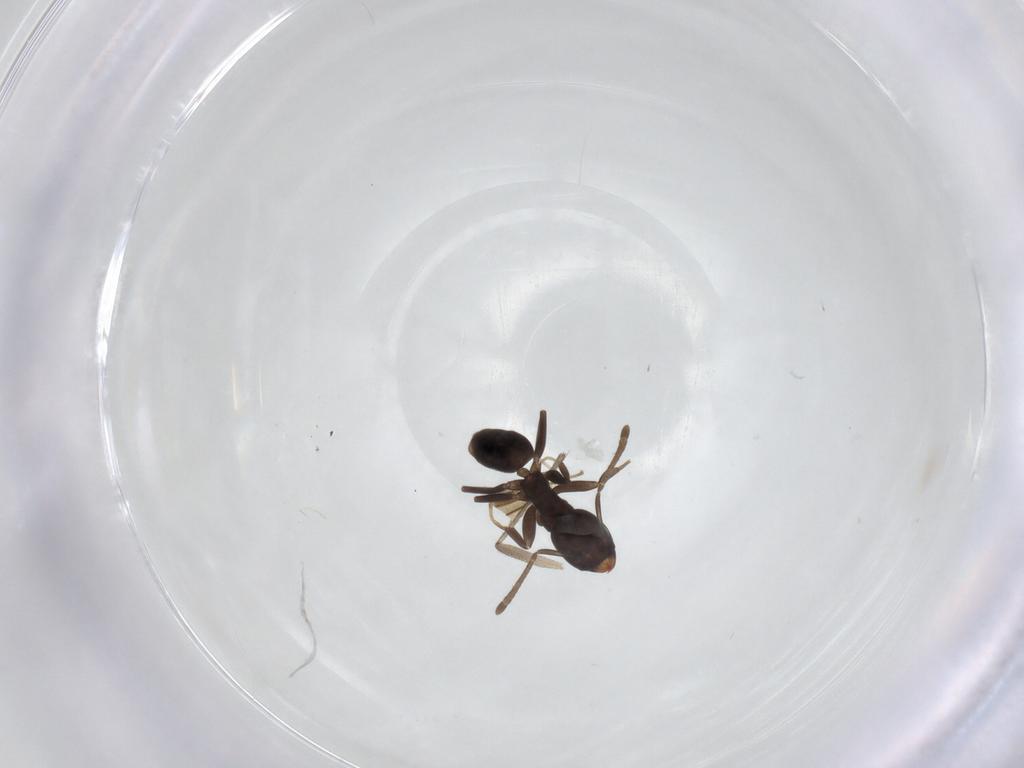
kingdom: Animalia
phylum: Arthropoda
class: Insecta
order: Hymenoptera
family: Formicidae
